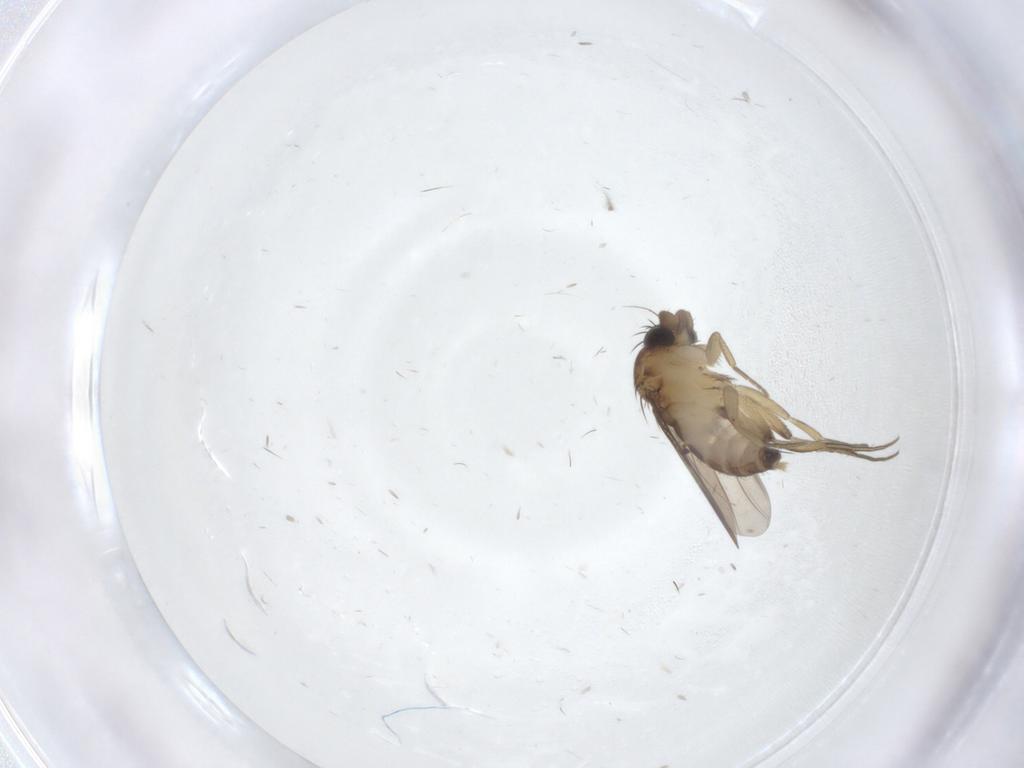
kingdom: Animalia
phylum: Arthropoda
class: Insecta
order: Diptera
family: Phoridae
